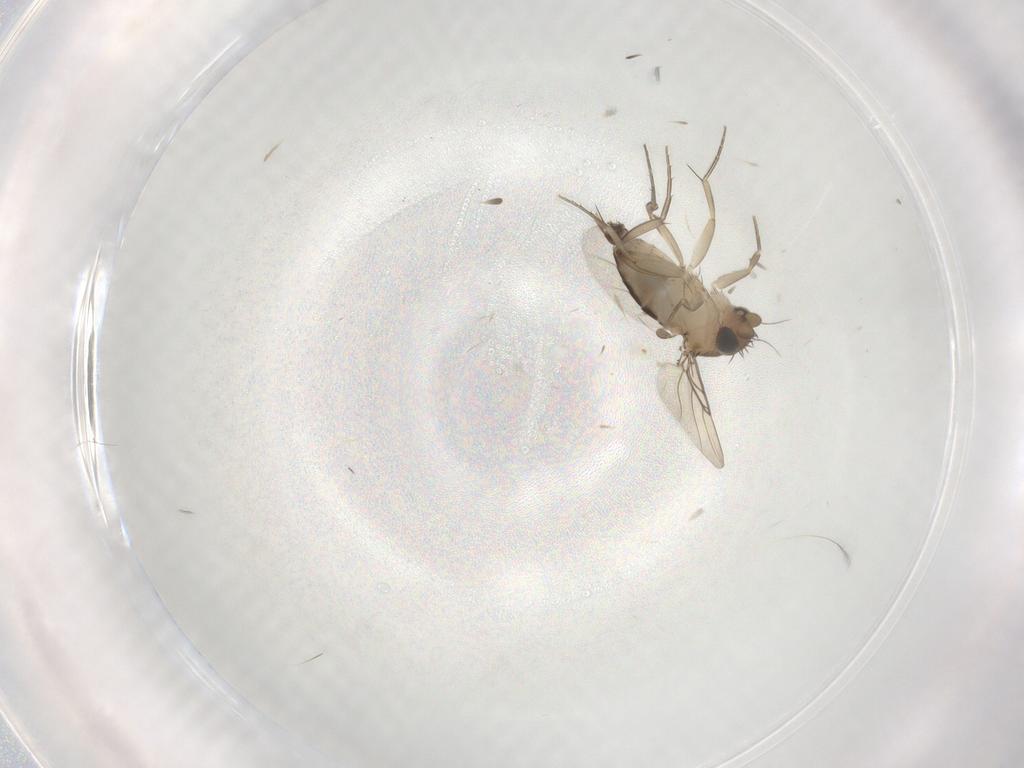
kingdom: Animalia
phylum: Arthropoda
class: Insecta
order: Diptera
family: Phoridae
